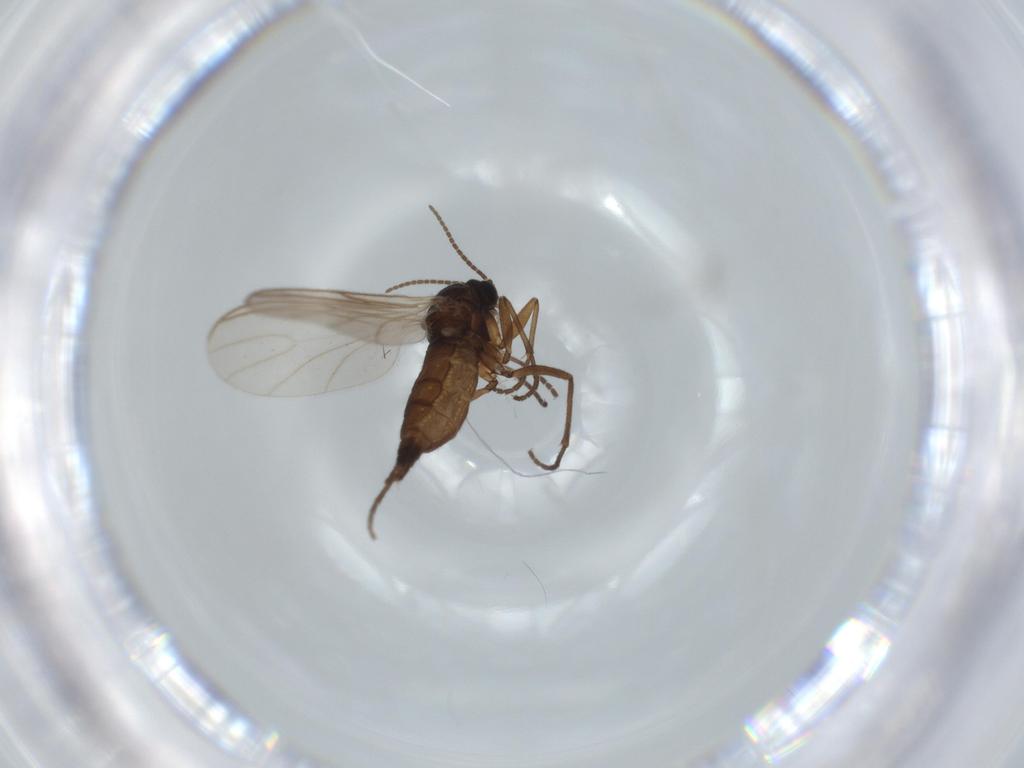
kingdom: Animalia
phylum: Arthropoda
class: Insecta
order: Diptera
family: Sciaridae
